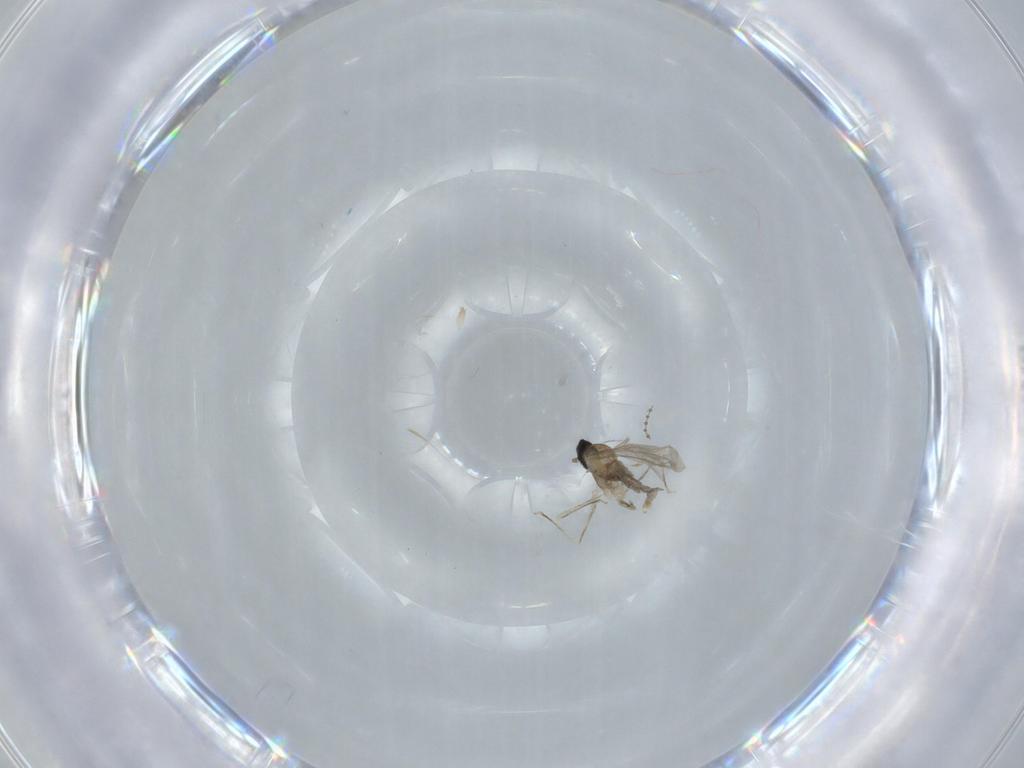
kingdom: Animalia
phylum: Arthropoda
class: Insecta
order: Diptera
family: Cecidomyiidae
